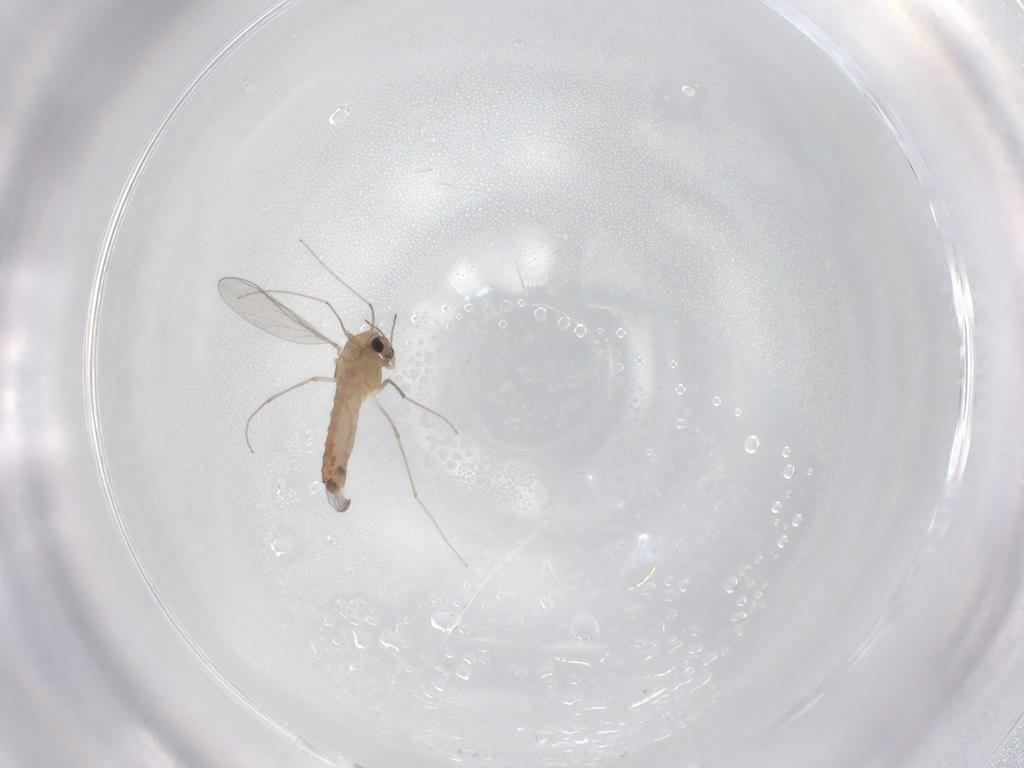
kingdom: Animalia
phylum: Arthropoda
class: Insecta
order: Diptera
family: Chironomidae
